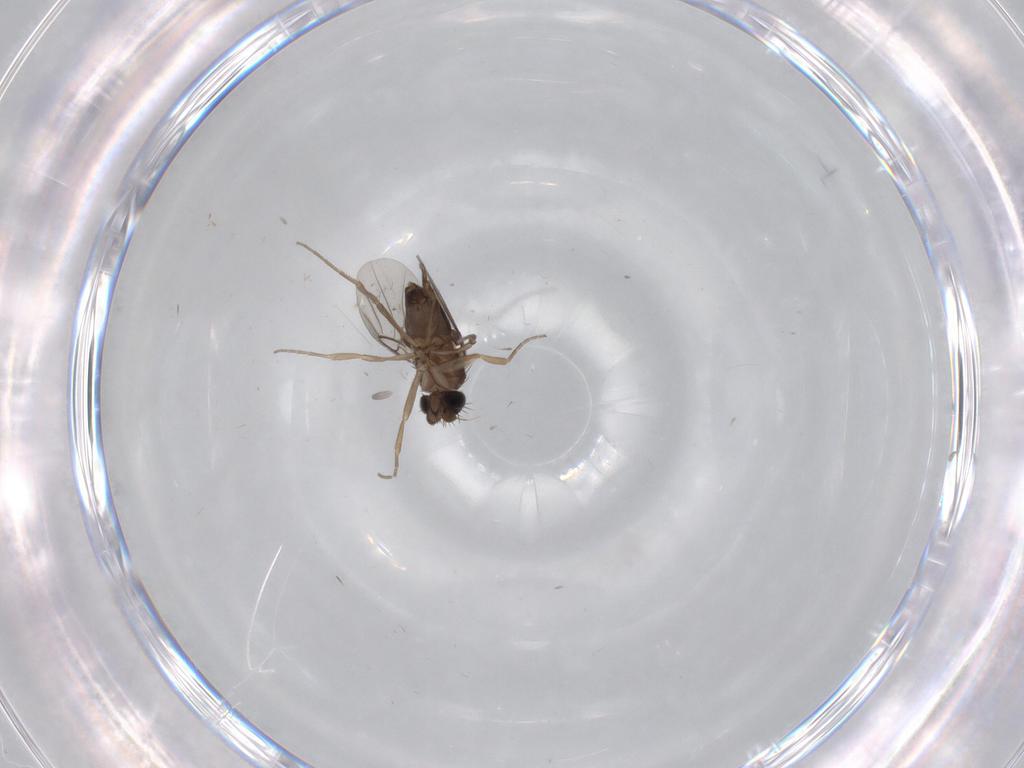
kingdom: Animalia
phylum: Arthropoda
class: Insecta
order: Diptera
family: Phoridae
